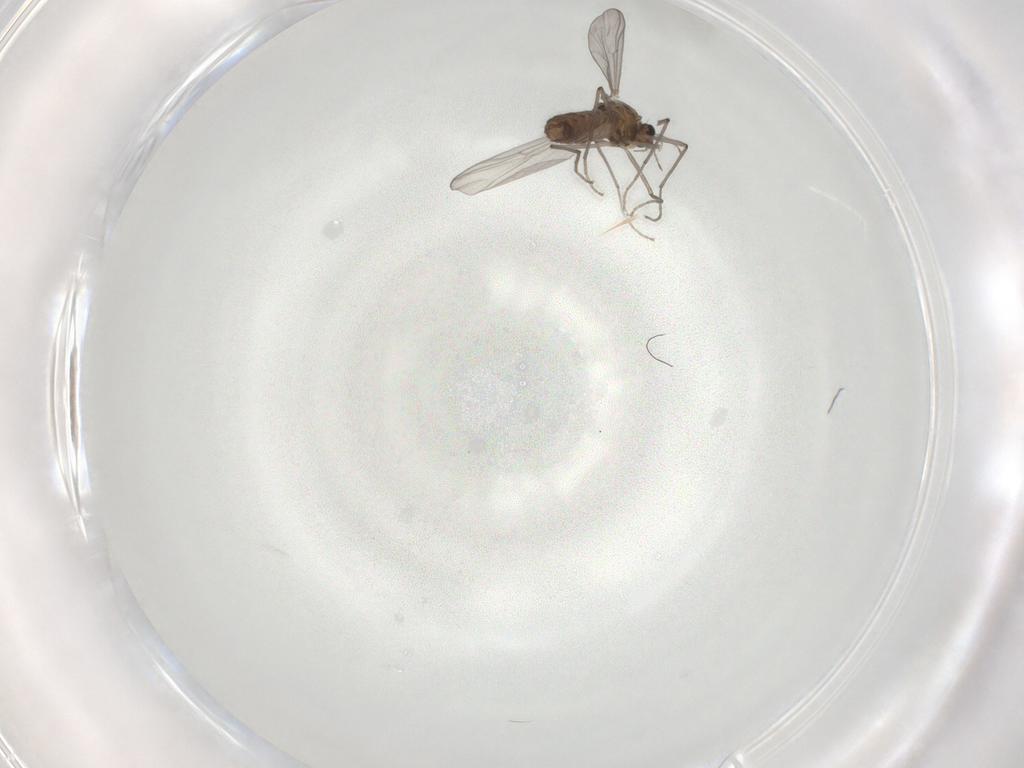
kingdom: Animalia
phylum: Arthropoda
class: Insecta
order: Diptera
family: Chironomidae
